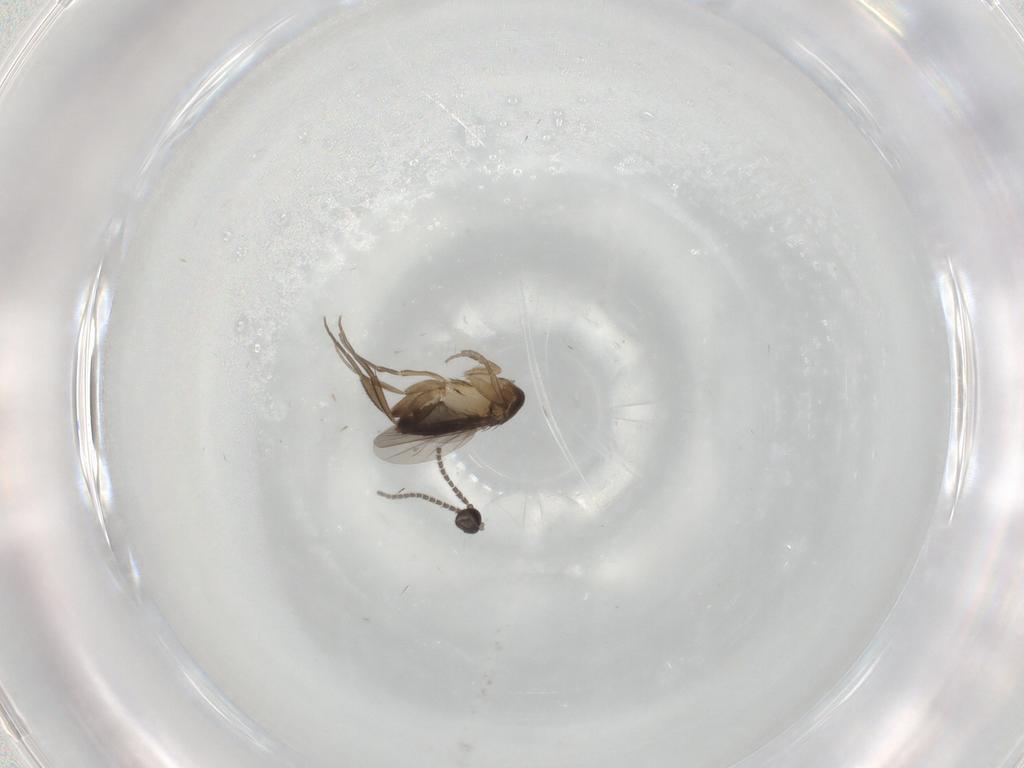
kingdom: Animalia
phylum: Arthropoda
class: Insecta
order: Diptera
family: Sciaridae
